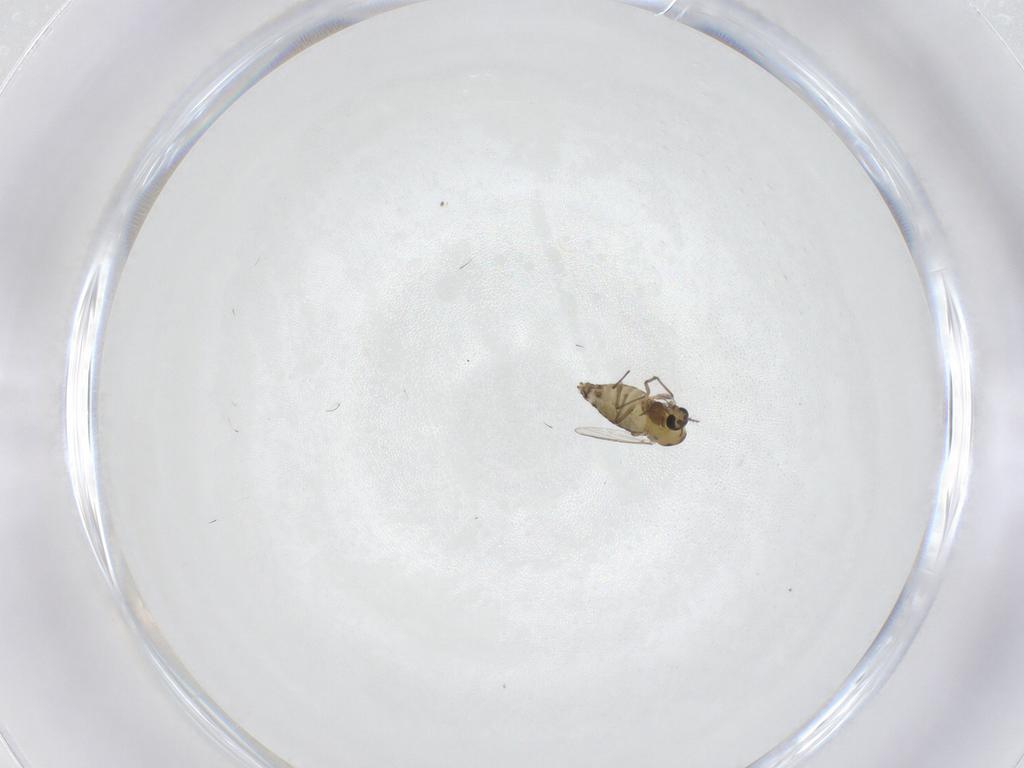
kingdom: Animalia
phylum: Arthropoda
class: Insecta
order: Diptera
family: Chironomidae
